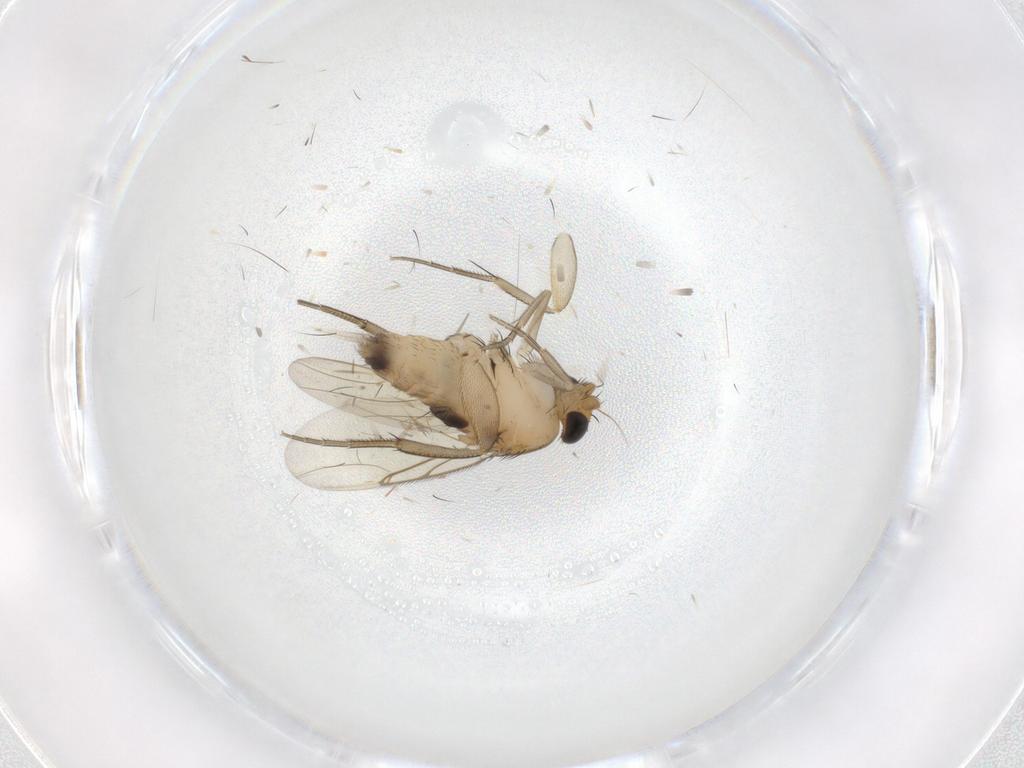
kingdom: Animalia
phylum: Arthropoda
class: Insecta
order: Diptera
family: Phoridae
